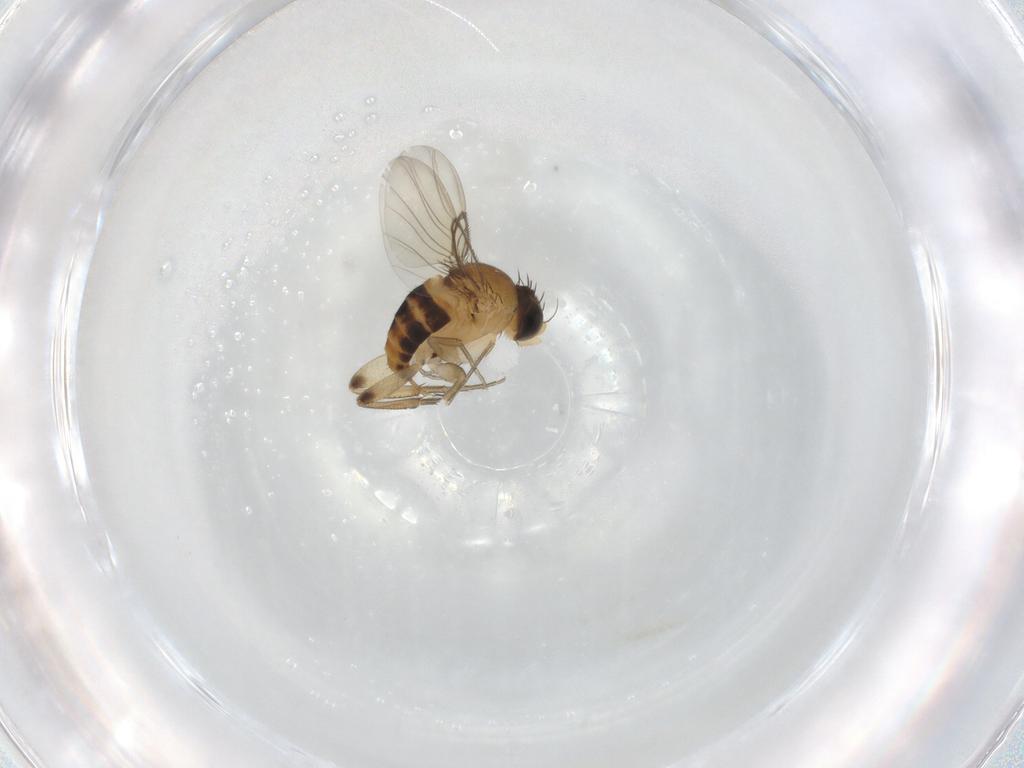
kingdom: Animalia
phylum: Arthropoda
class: Insecta
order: Diptera
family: Phoridae
